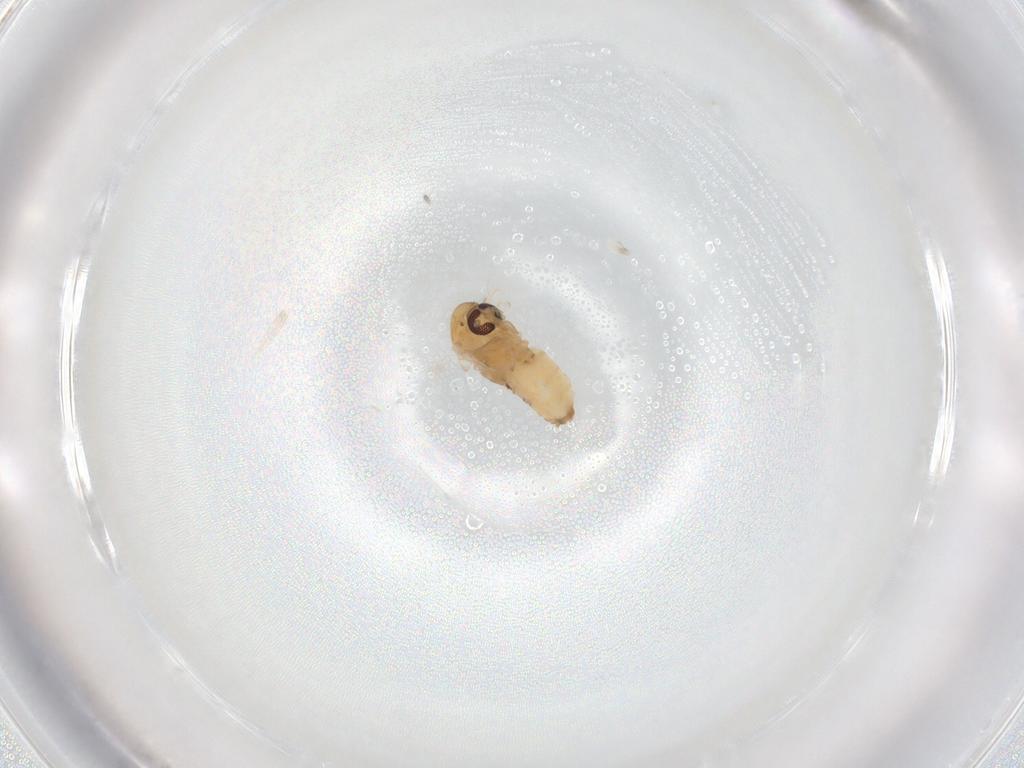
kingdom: Animalia
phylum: Arthropoda
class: Insecta
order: Diptera
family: Psychodidae
